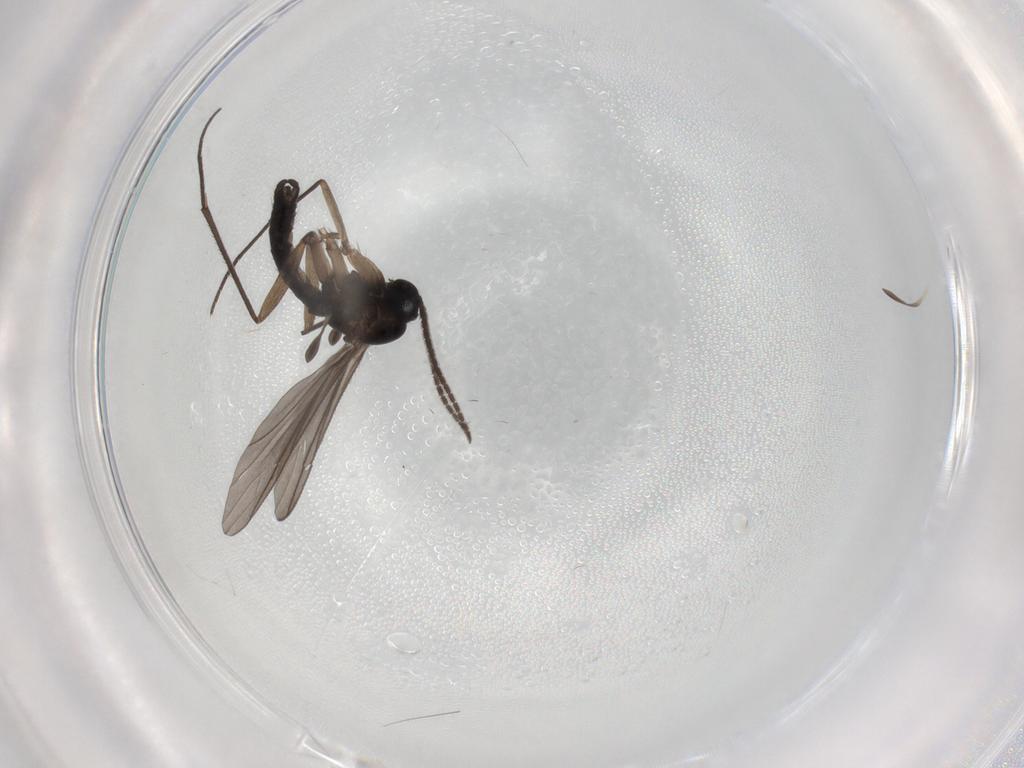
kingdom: Animalia
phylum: Arthropoda
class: Insecta
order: Diptera
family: Sciaridae
